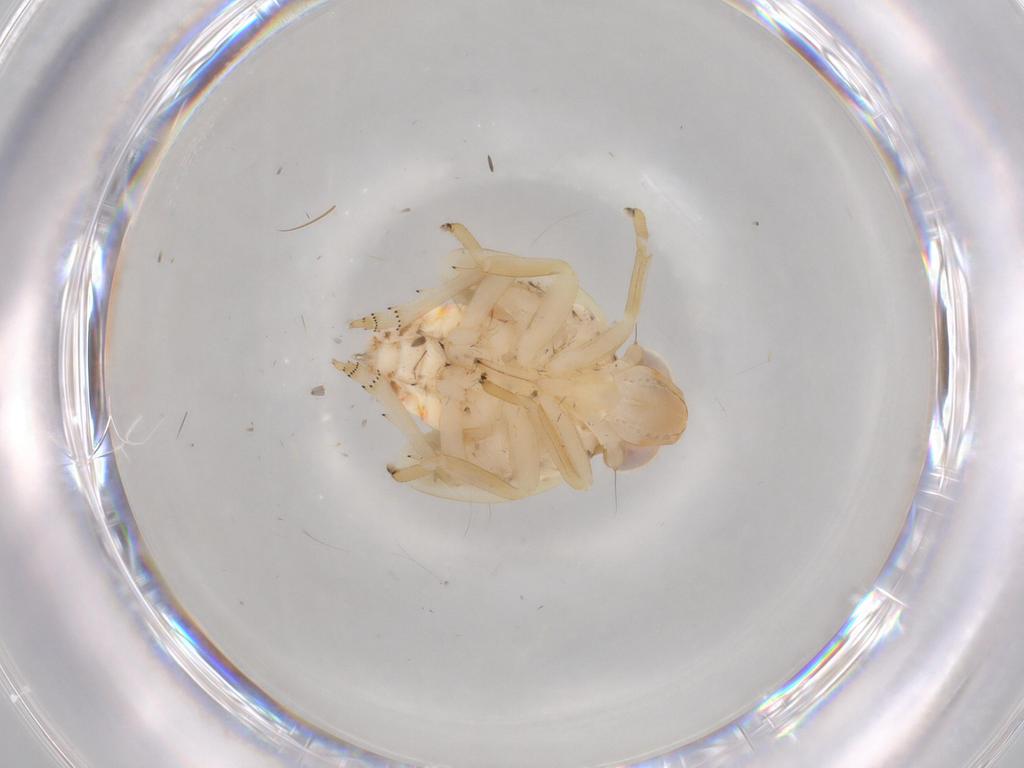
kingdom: Animalia
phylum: Arthropoda
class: Insecta
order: Hemiptera
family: Nogodinidae
